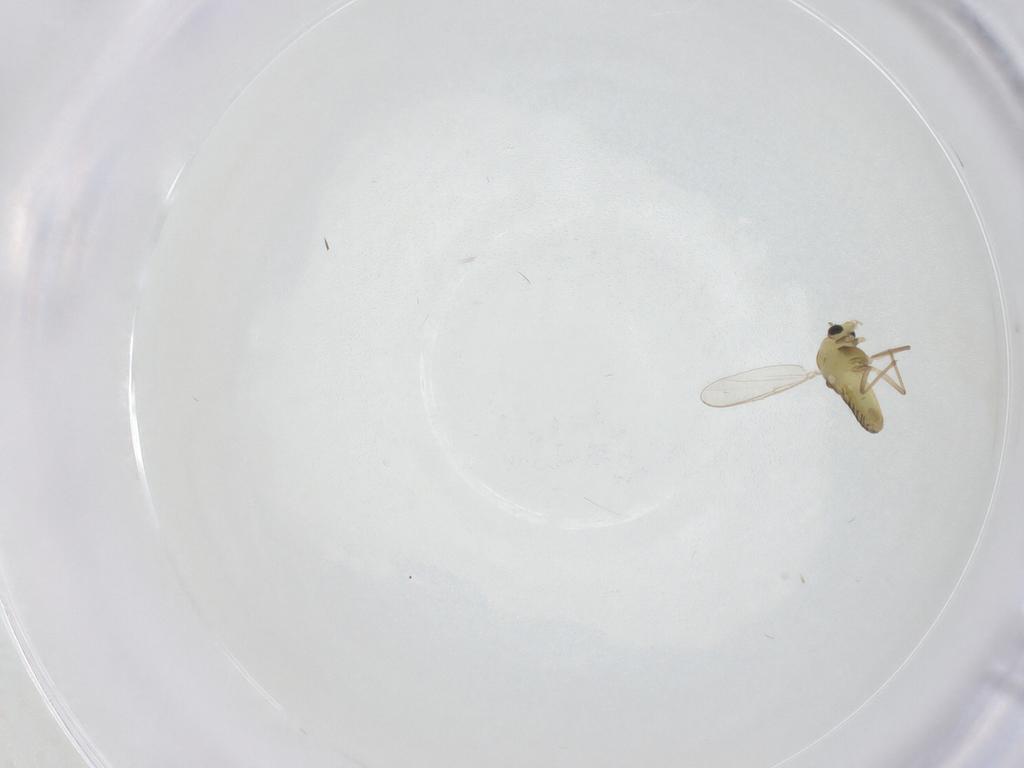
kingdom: Animalia
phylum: Arthropoda
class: Insecta
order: Diptera
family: Chironomidae
